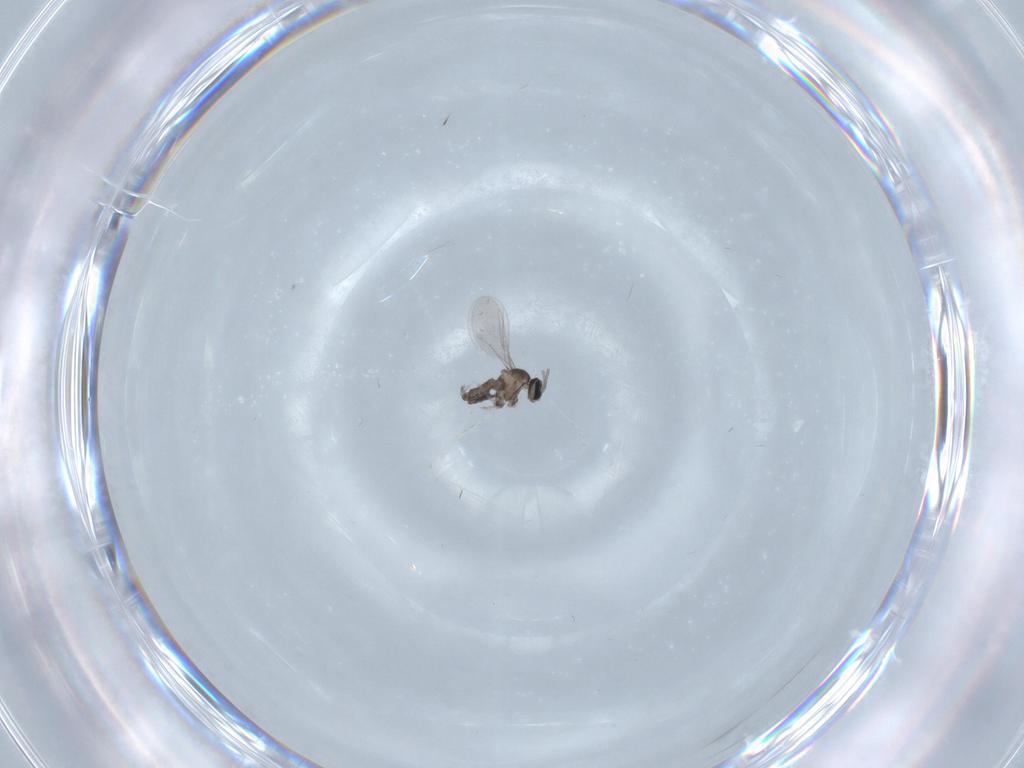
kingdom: Animalia
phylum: Arthropoda
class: Insecta
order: Diptera
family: Cecidomyiidae
